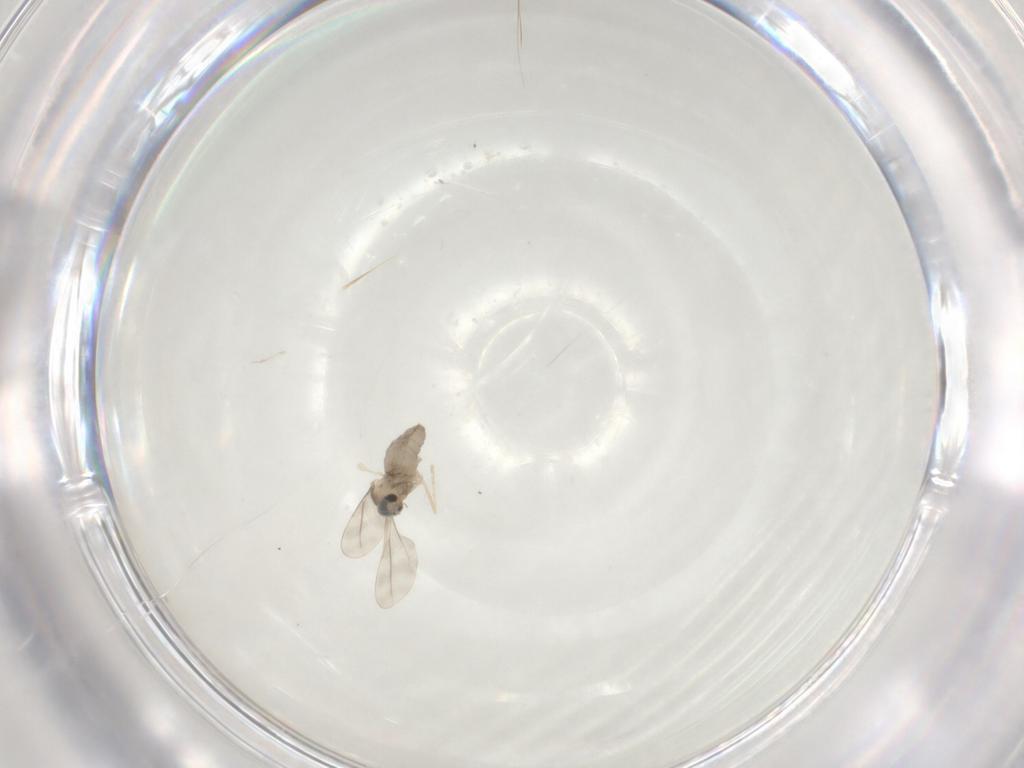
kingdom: Animalia
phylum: Arthropoda
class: Insecta
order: Diptera
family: Cecidomyiidae
